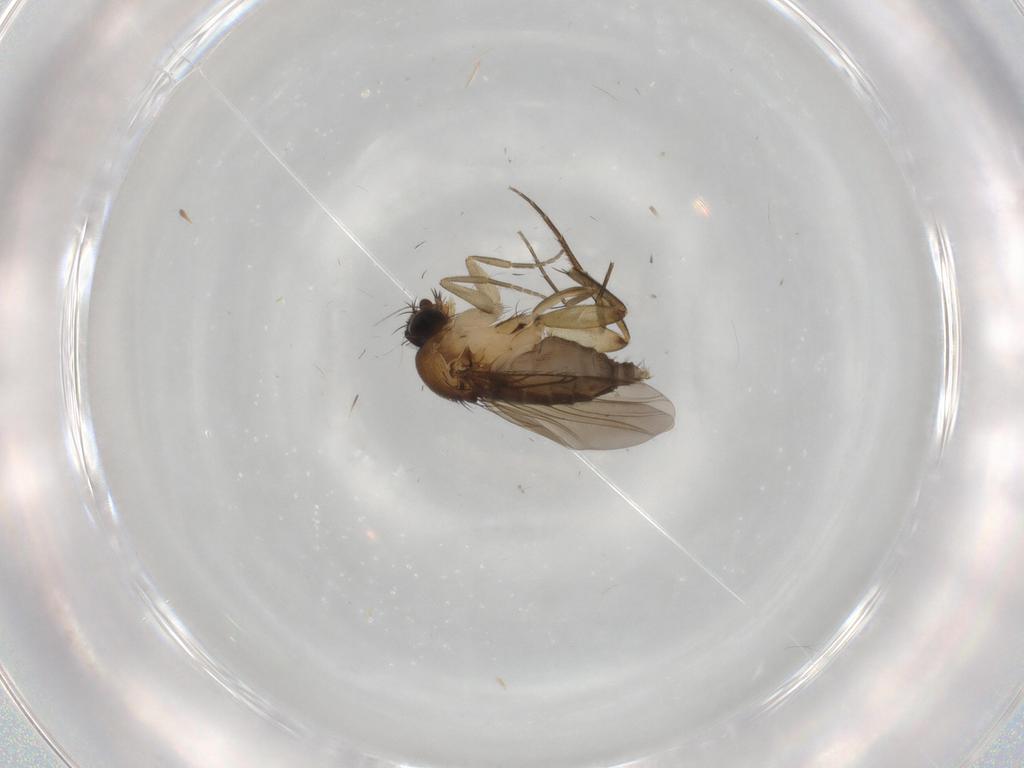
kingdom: Animalia
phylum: Arthropoda
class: Insecta
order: Diptera
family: Phoridae
